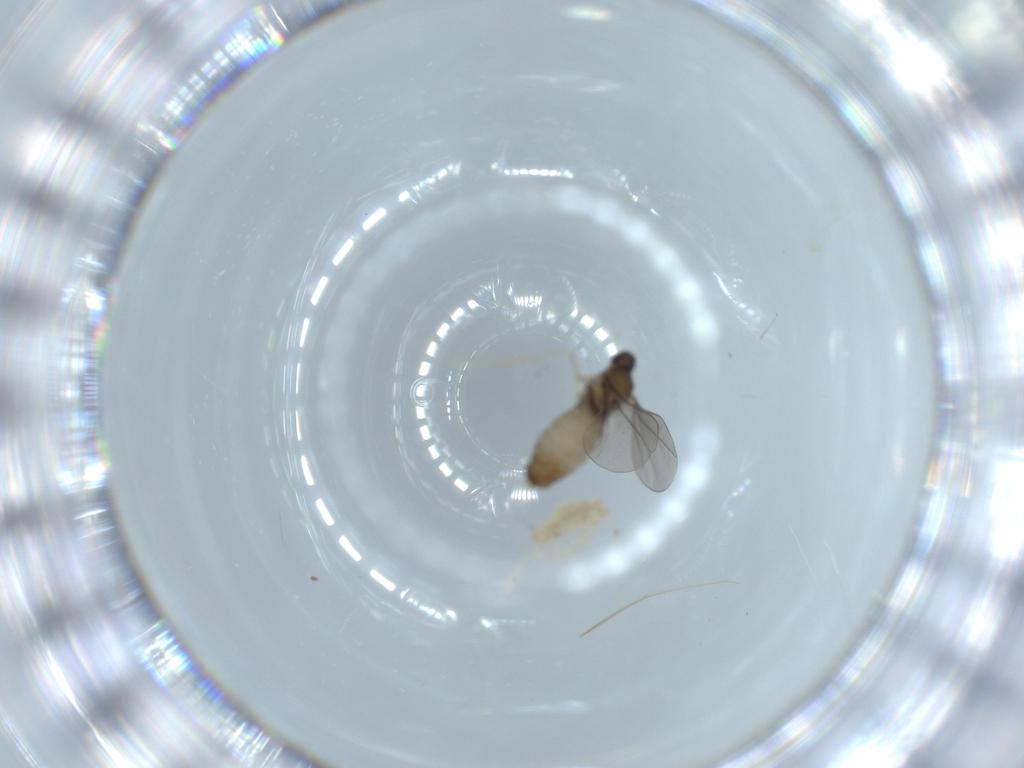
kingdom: Animalia
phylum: Arthropoda
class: Insecta
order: Diptera
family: Hybotidae
